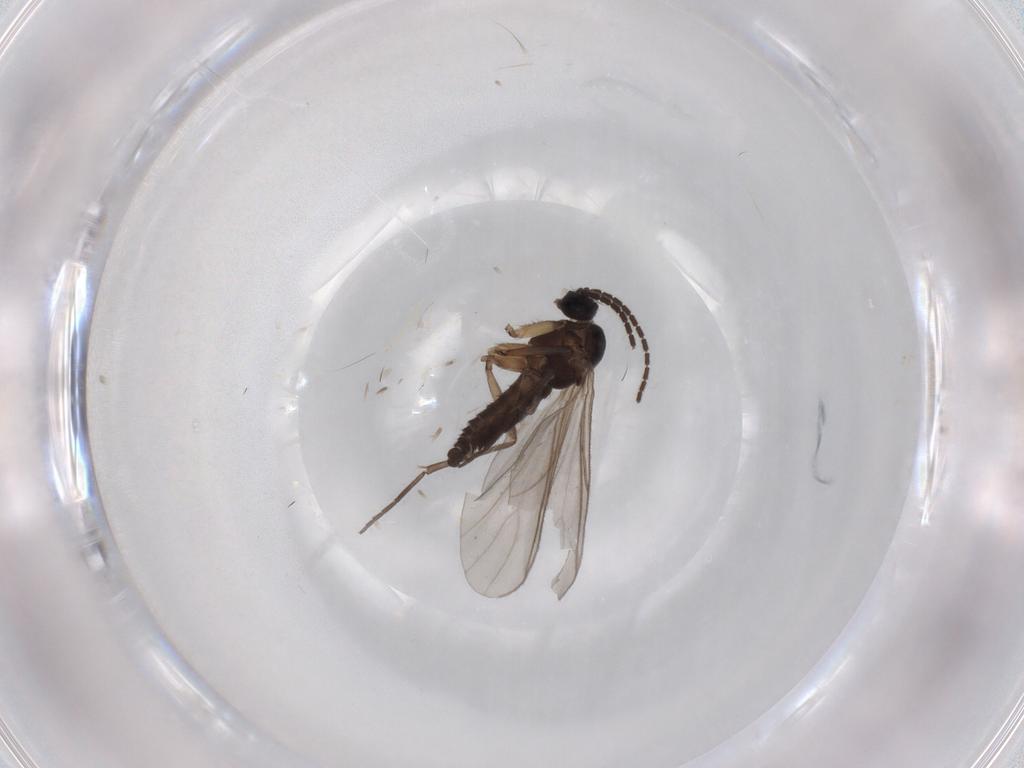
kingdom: Animalia
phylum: Arthropoda
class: Insecta
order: Diptera
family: Sciaridae
